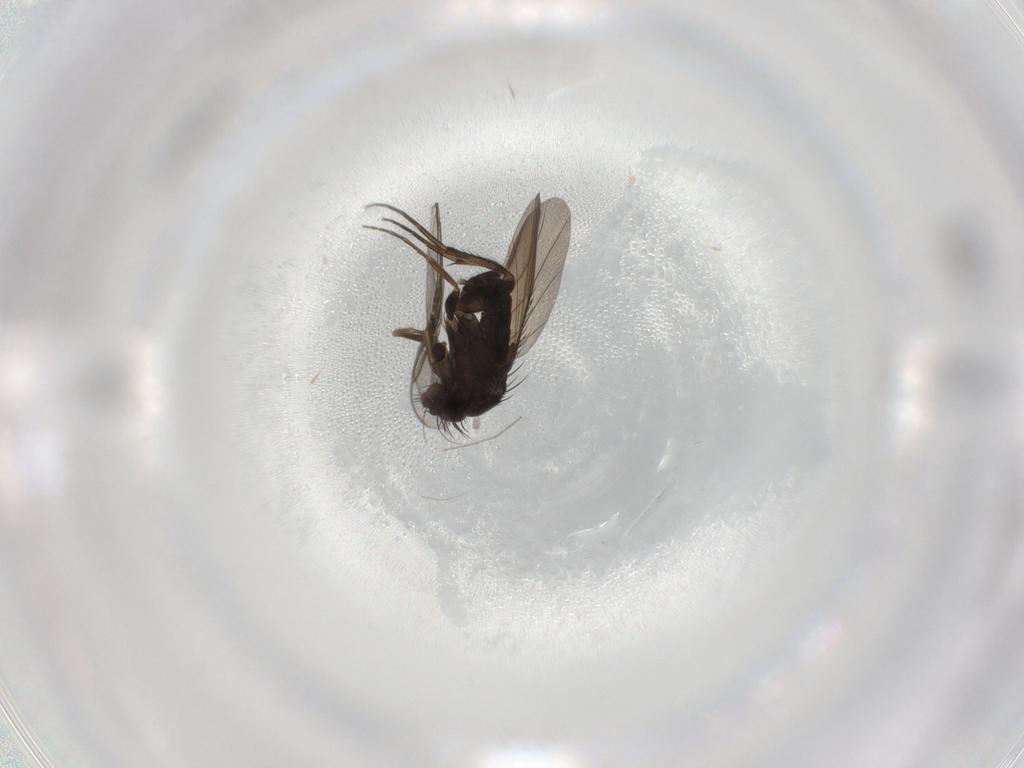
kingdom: Animalia
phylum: Arthropoda
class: Insecta
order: Diptera
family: Phoridae
